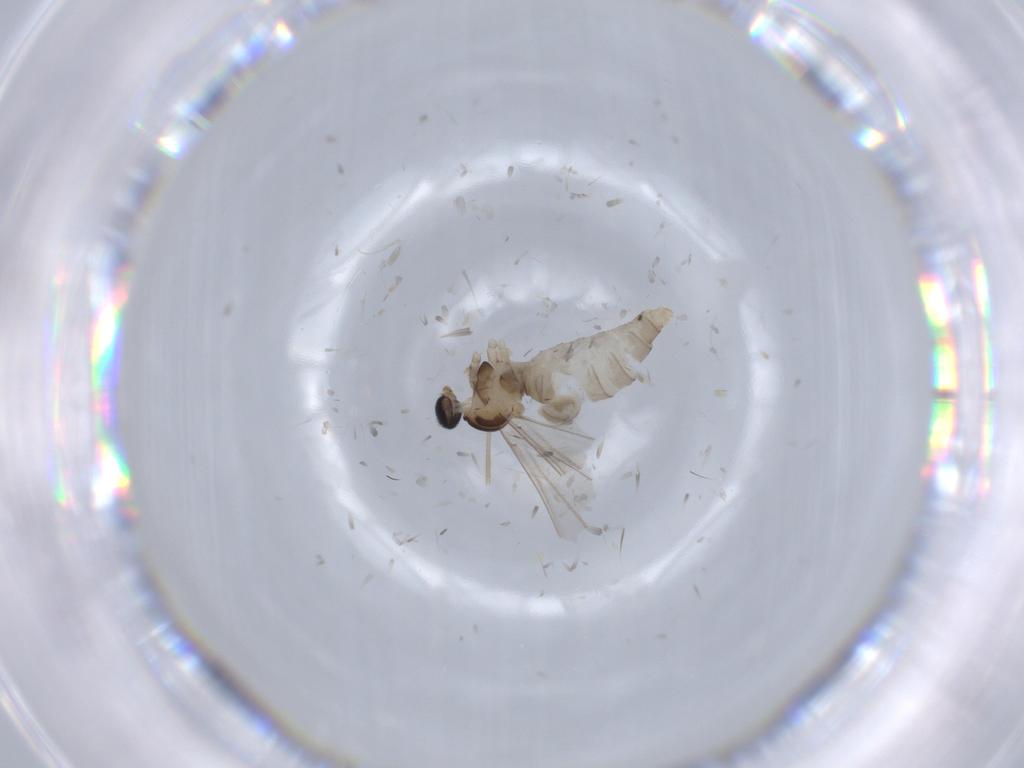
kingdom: Animalia
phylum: Arthropoda
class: Insecta
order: Diptera
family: Cecidomyiidae
